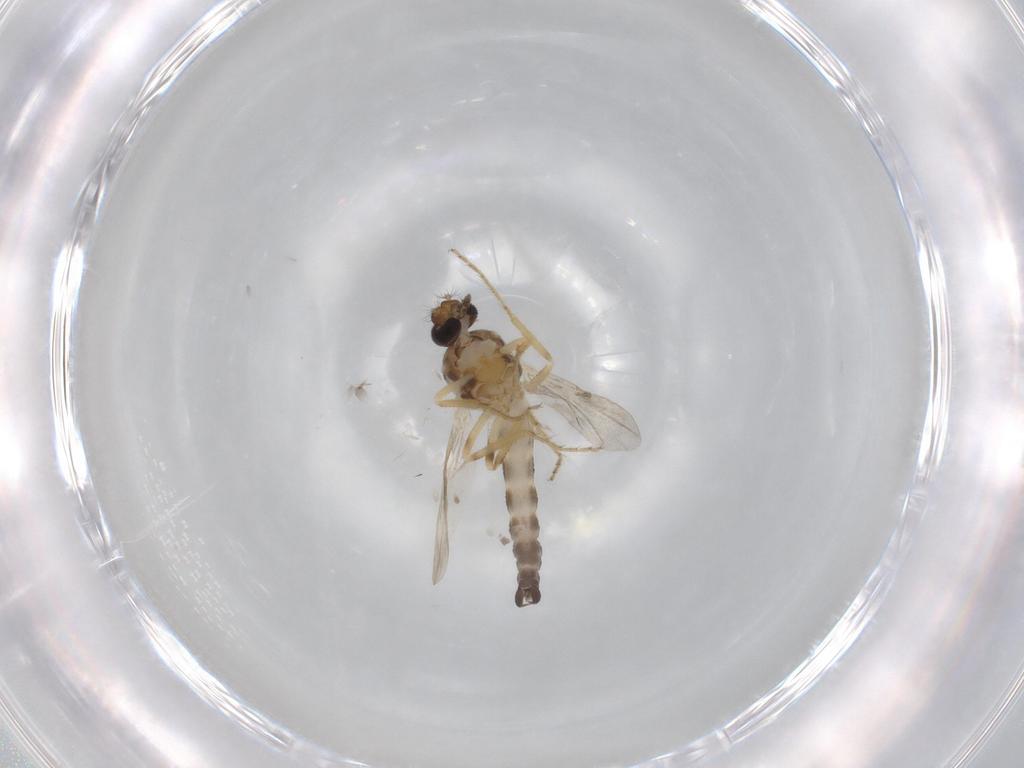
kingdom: Animalia
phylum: Arthropoda
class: Insecta
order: Diptera
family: Ceratopogonidae
